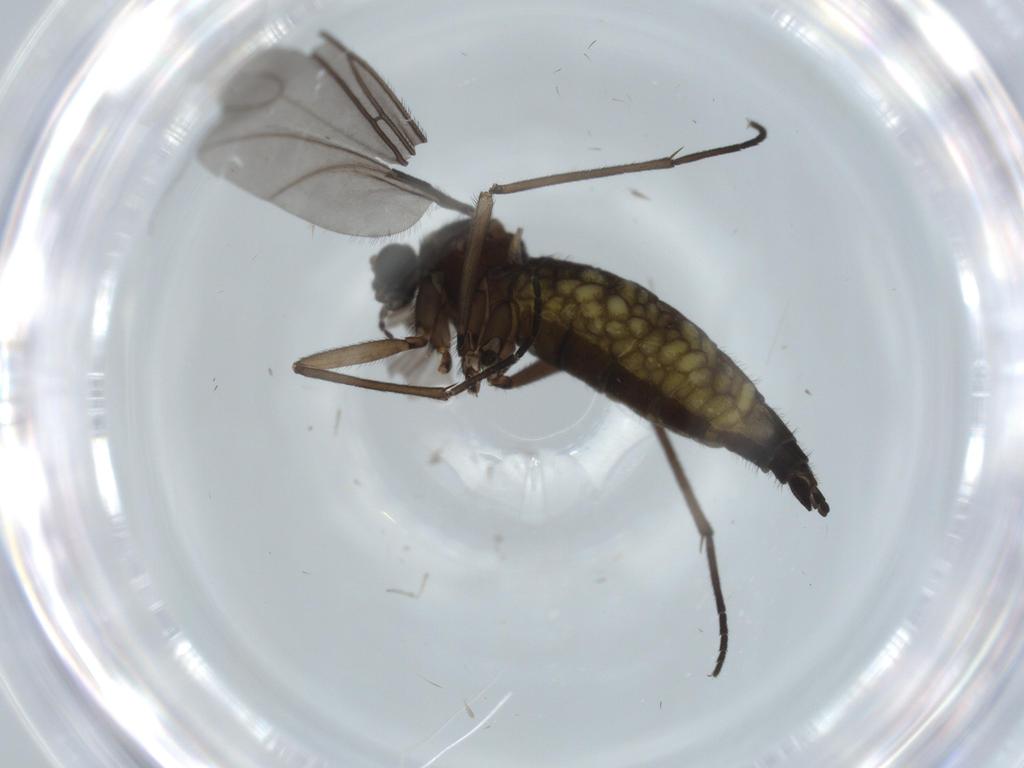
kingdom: Animalia
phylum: Arthropoda
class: Insecta
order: Diptera
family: Sciaridae
